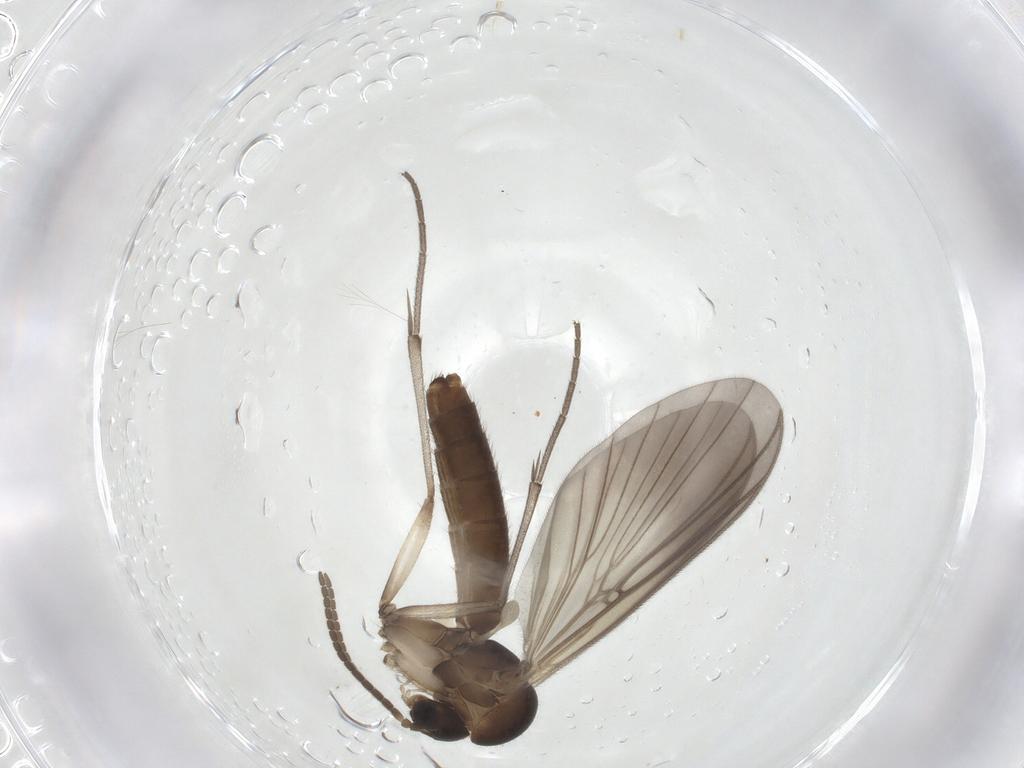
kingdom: Animalia
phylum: Arthropoda
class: Insecta
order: Diptera
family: Mycetophilidae
